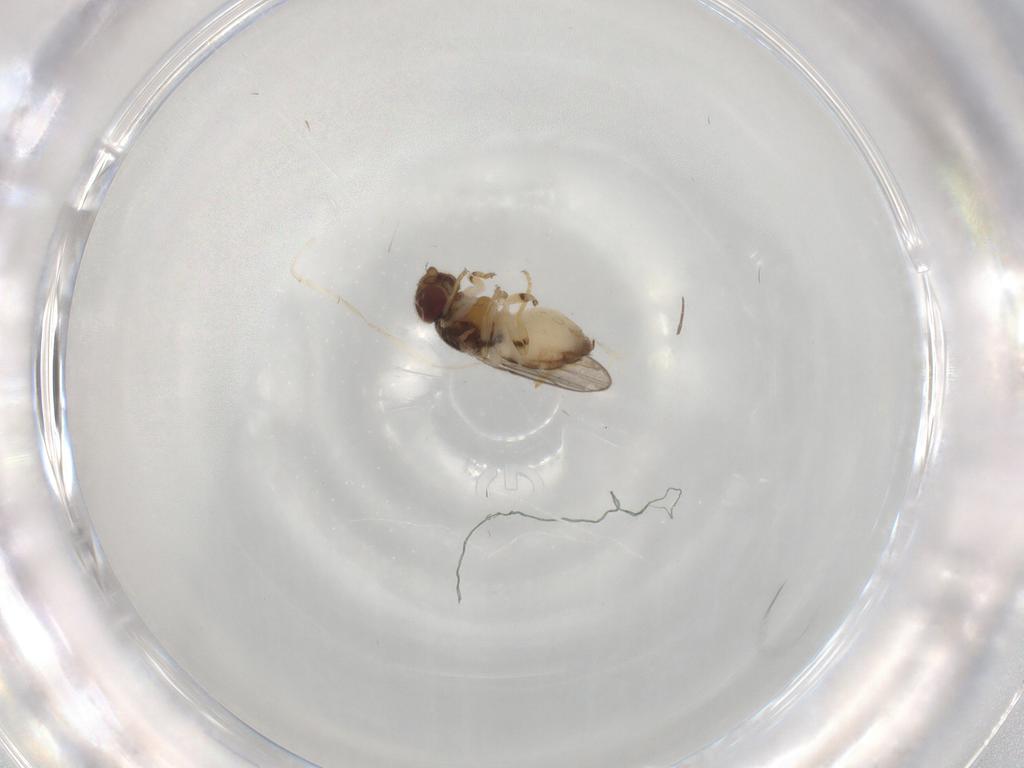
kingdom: Animalia
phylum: Arthropoda
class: Insecta
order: Diptera
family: Chloropidae
